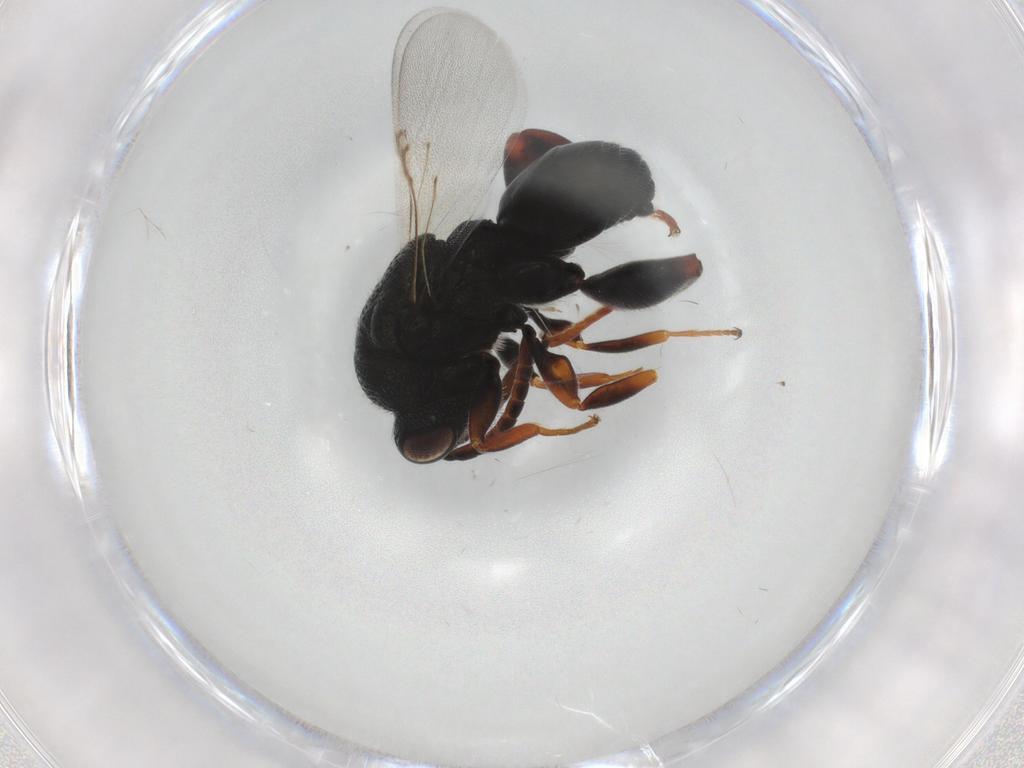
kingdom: Animalia
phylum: Arthropoda
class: Insecta
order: Hymenoptera
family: Chalcididae
